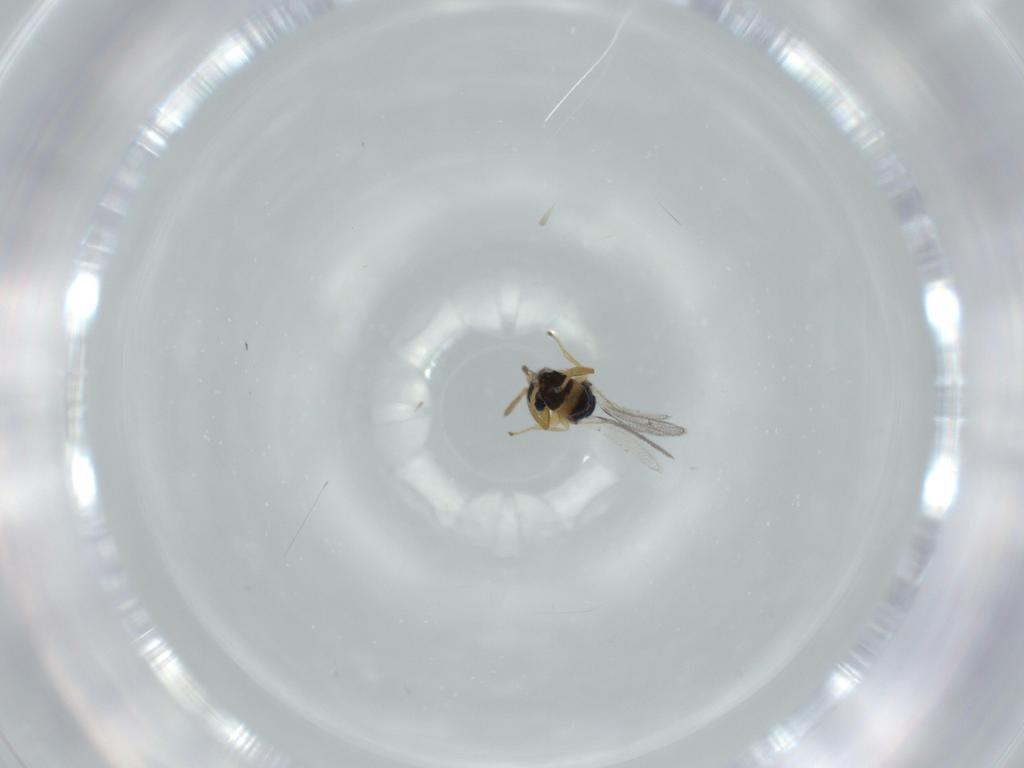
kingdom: Animalia
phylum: Arthropoda
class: Insecta
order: Hymenoptera
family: Torymidae
